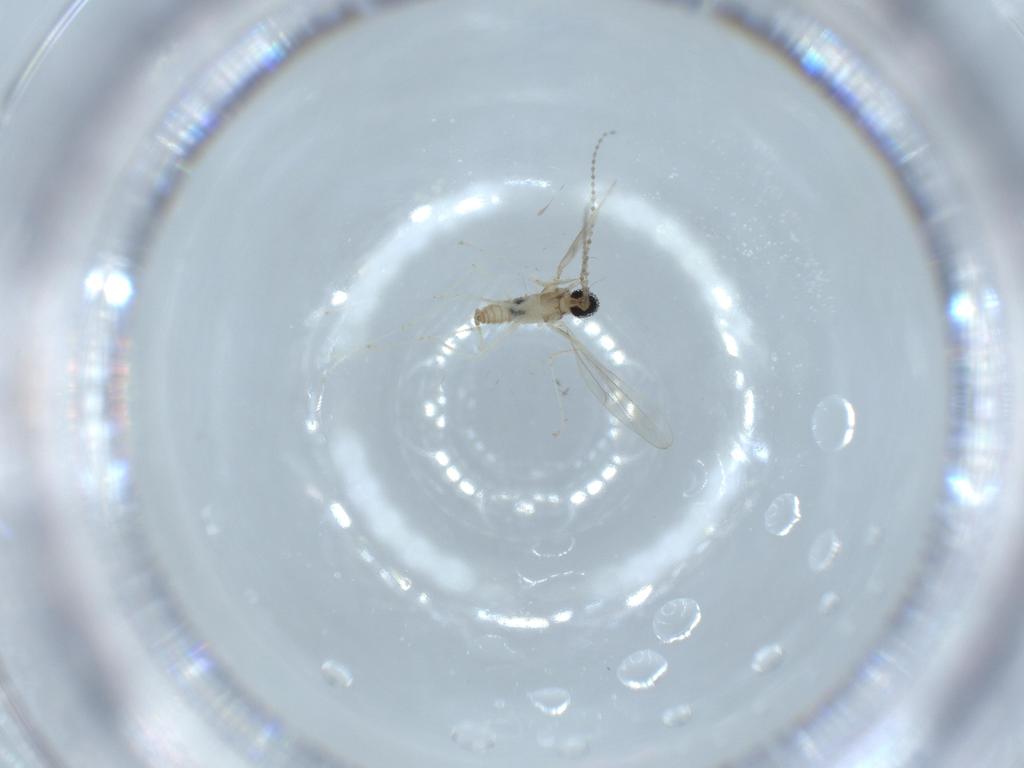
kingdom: Animalia
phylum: Arthropoda
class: Insecta
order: Diptera
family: Cecidomyiidae
